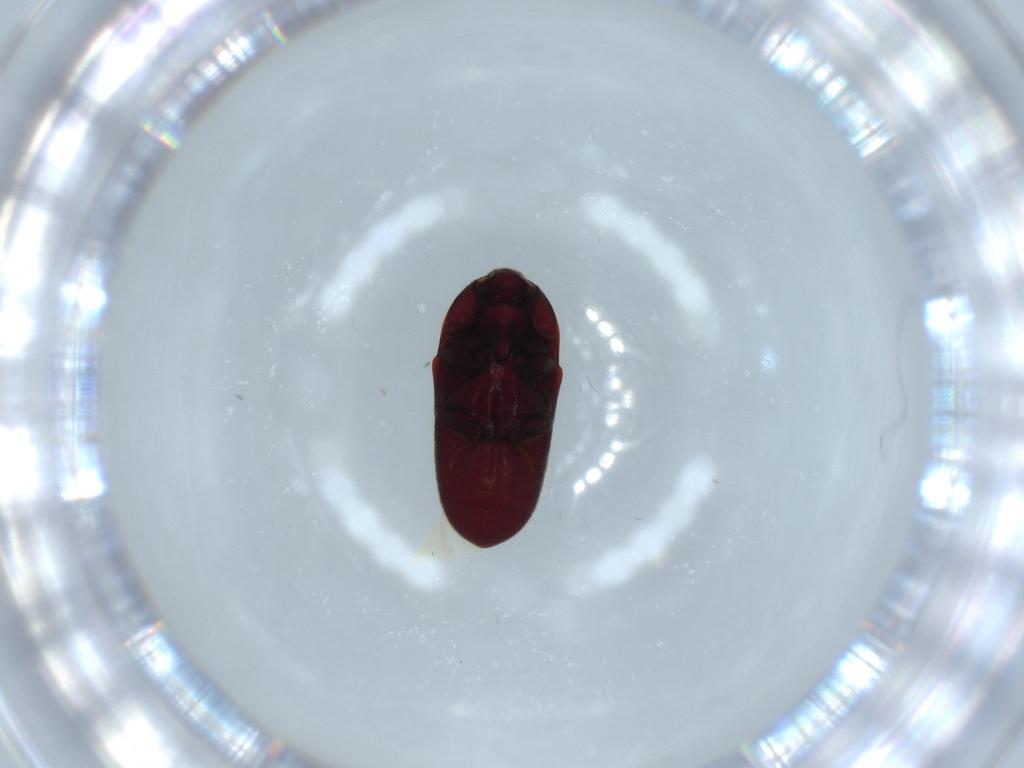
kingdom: Animalia
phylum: Arthropoda
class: Insecta
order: Coleoptera
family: Throscidae
